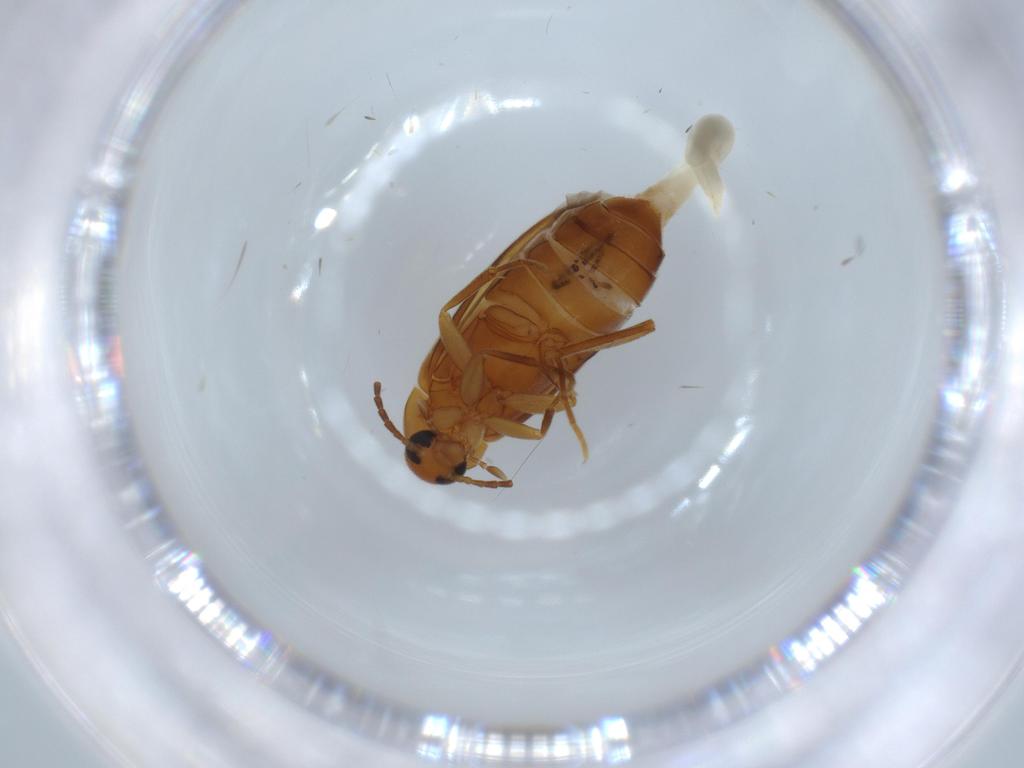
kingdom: Animalia
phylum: Arthropoda
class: Insecta
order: Coleoptera
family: Scraptiidae
